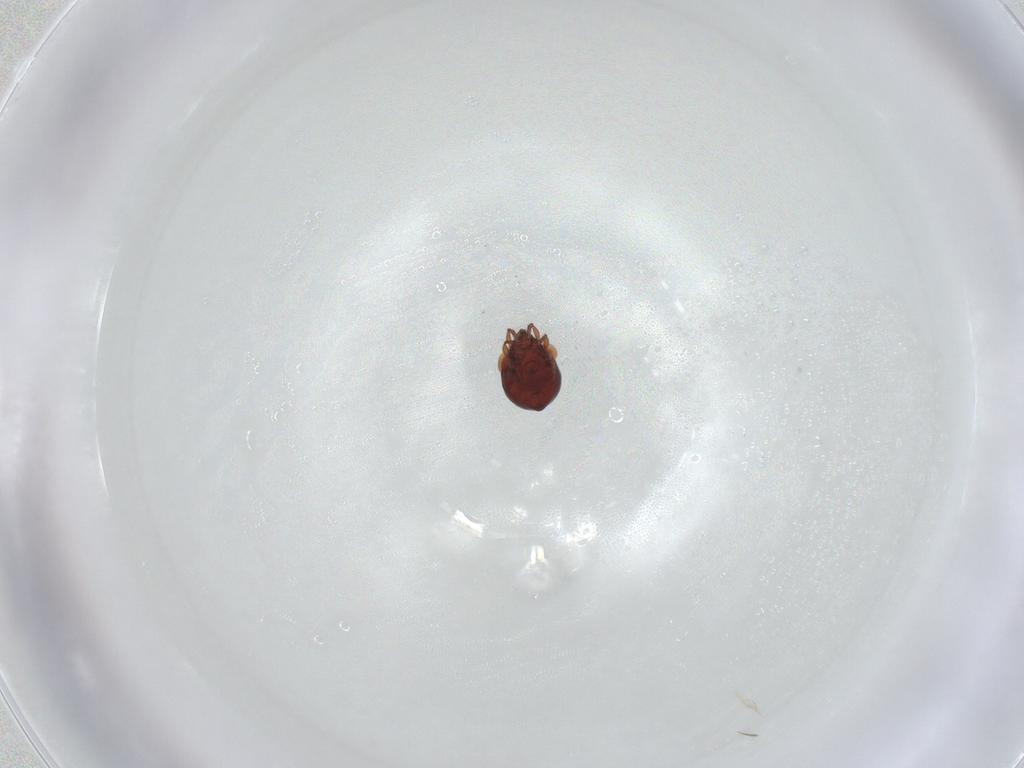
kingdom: Animalia
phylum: Arthropoda
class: Arachnida
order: Sarcoptiformes
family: Humerobatidae
